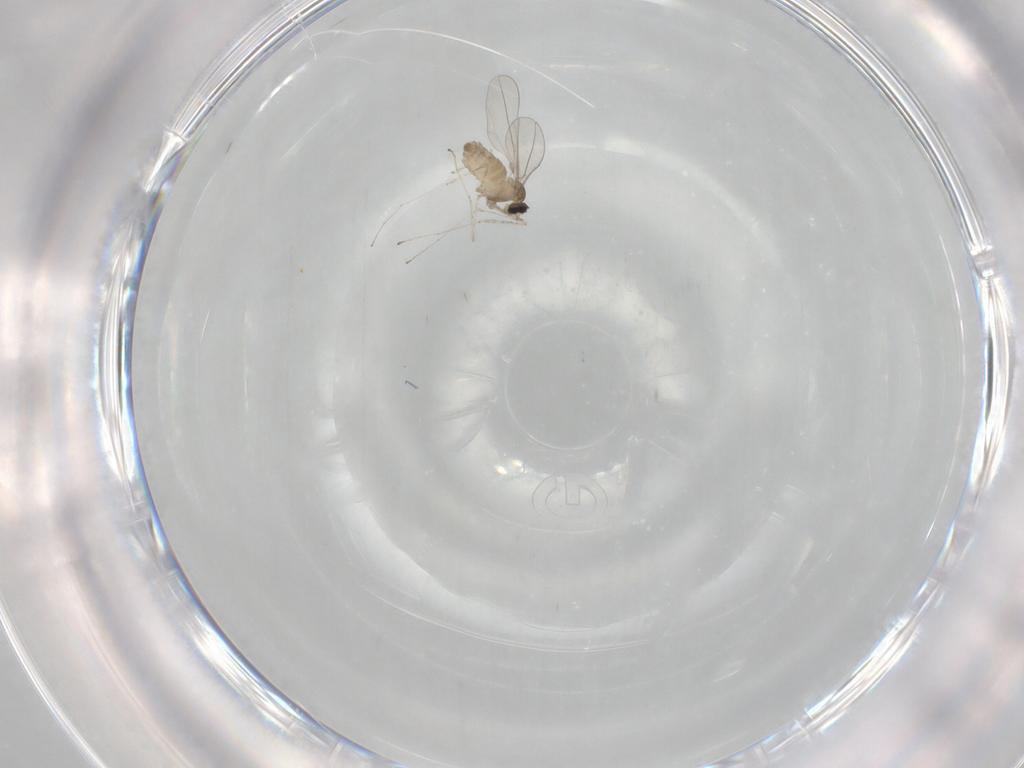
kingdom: Animalia
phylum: Arthropoda
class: Insecta
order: Diptera
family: Cecidomyiidae
